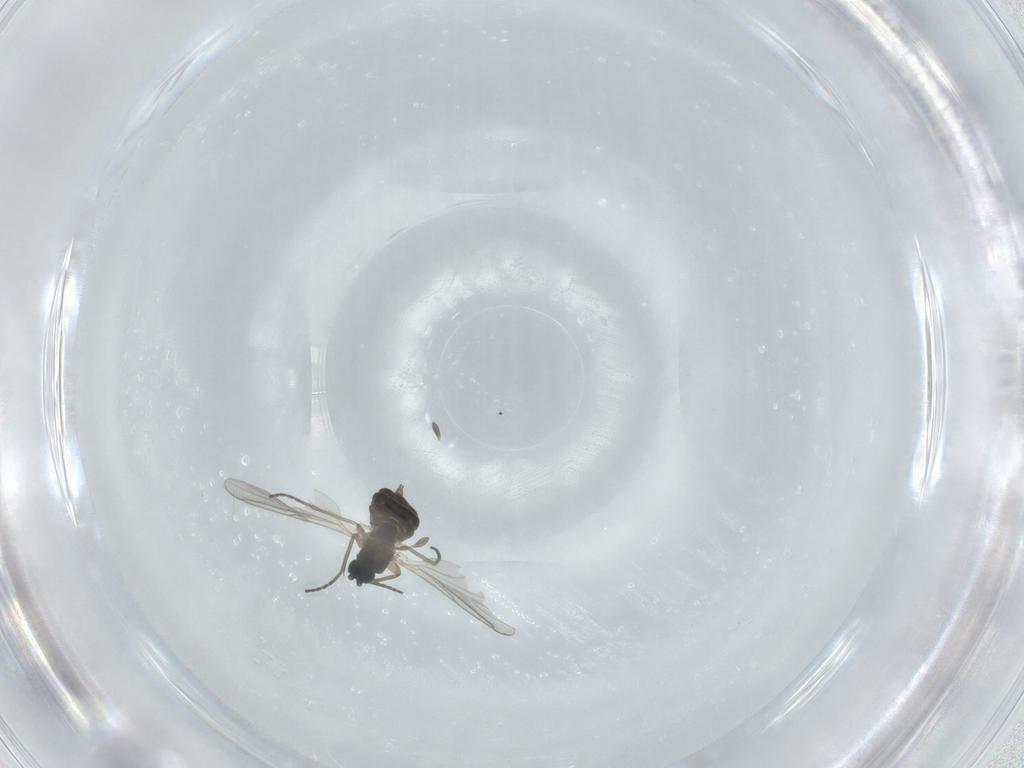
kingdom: Animalia
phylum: Arthropoda
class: Insecta
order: Diptera
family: Sciaridae
